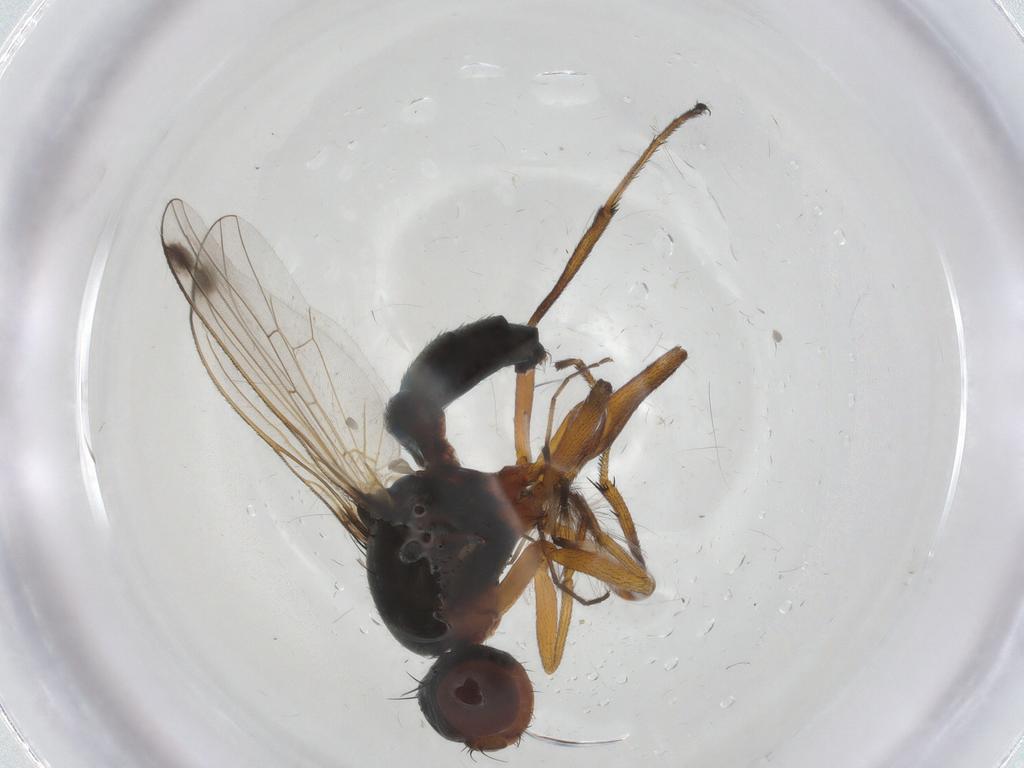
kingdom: Animalia
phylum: Arthropoda
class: Insecta
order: Diptera
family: Sepsidae
